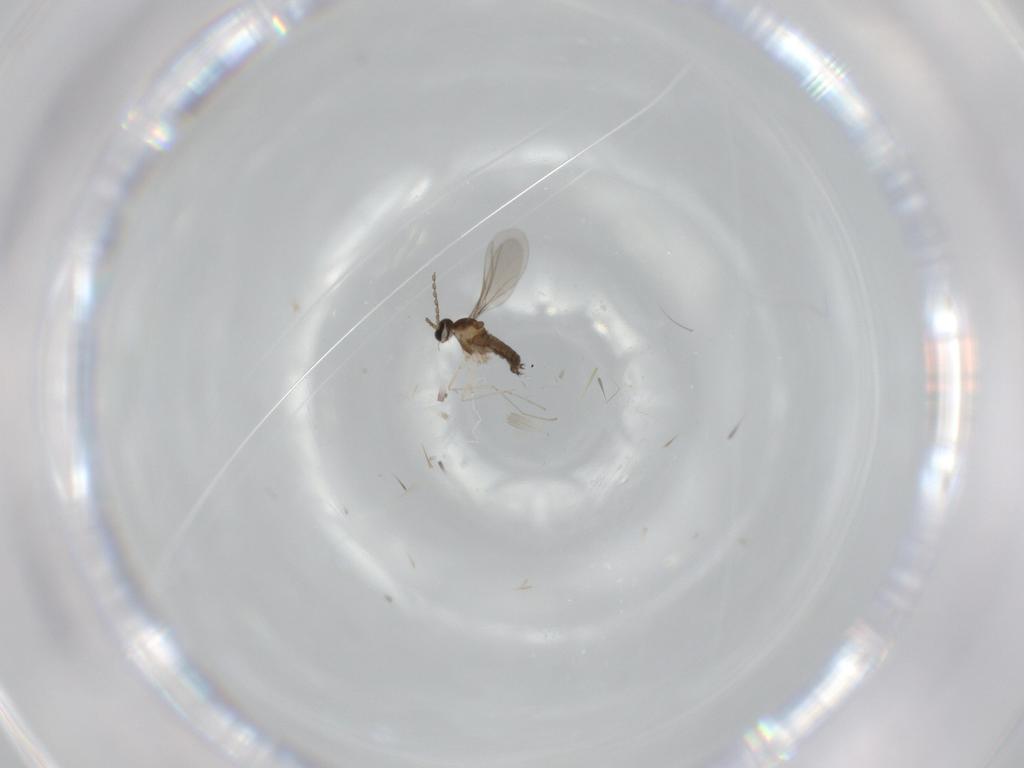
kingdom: Animalia
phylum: Arthropoda
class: Insecta
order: Diptera
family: Cecidomyiidae
